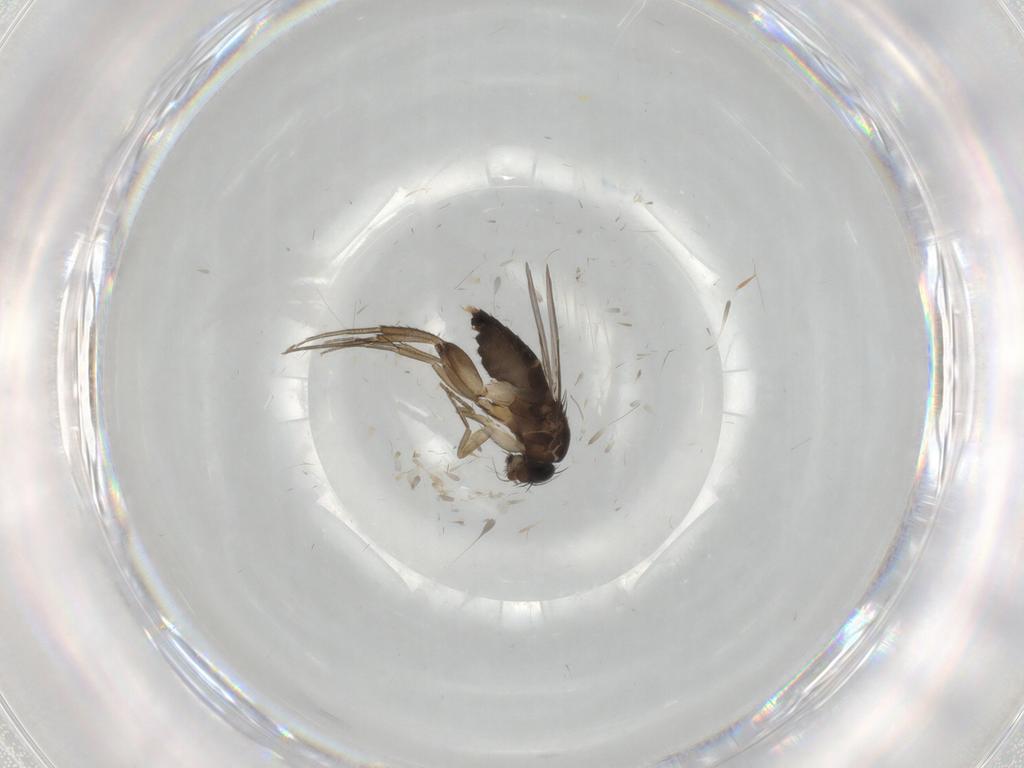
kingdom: Animalia
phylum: Arthropoda
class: Insecta
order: Diptera
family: Phoridae
